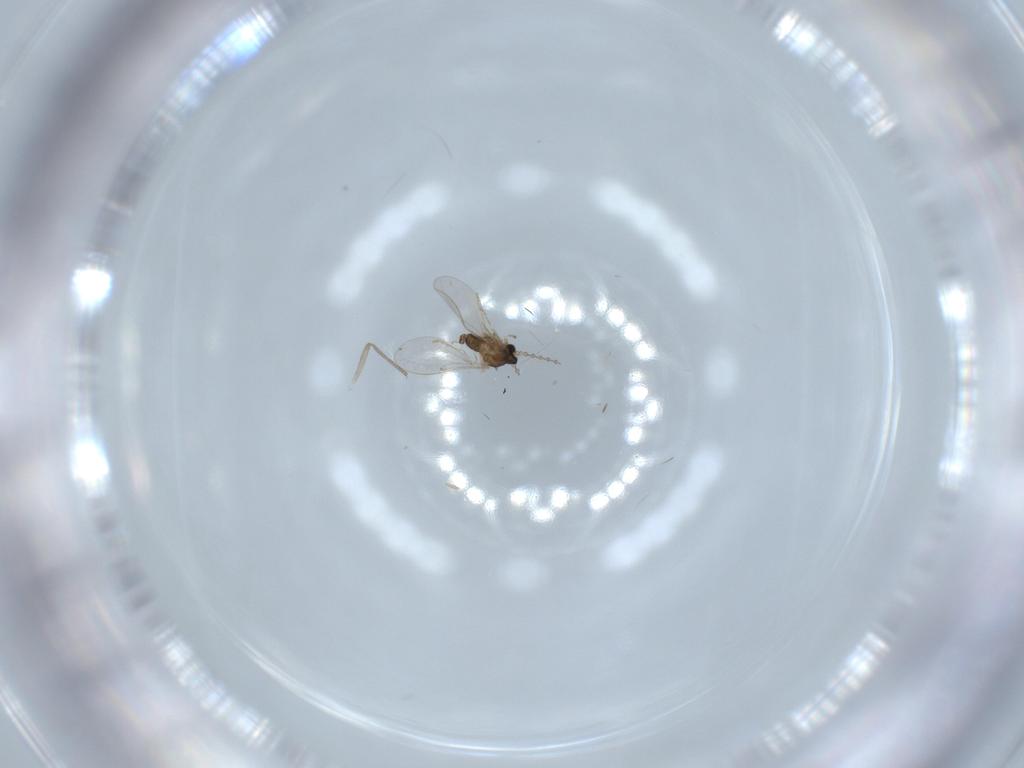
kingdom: Animalia
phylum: Arthropoda
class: Insecta
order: Diptera
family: Cecidomyiidae
